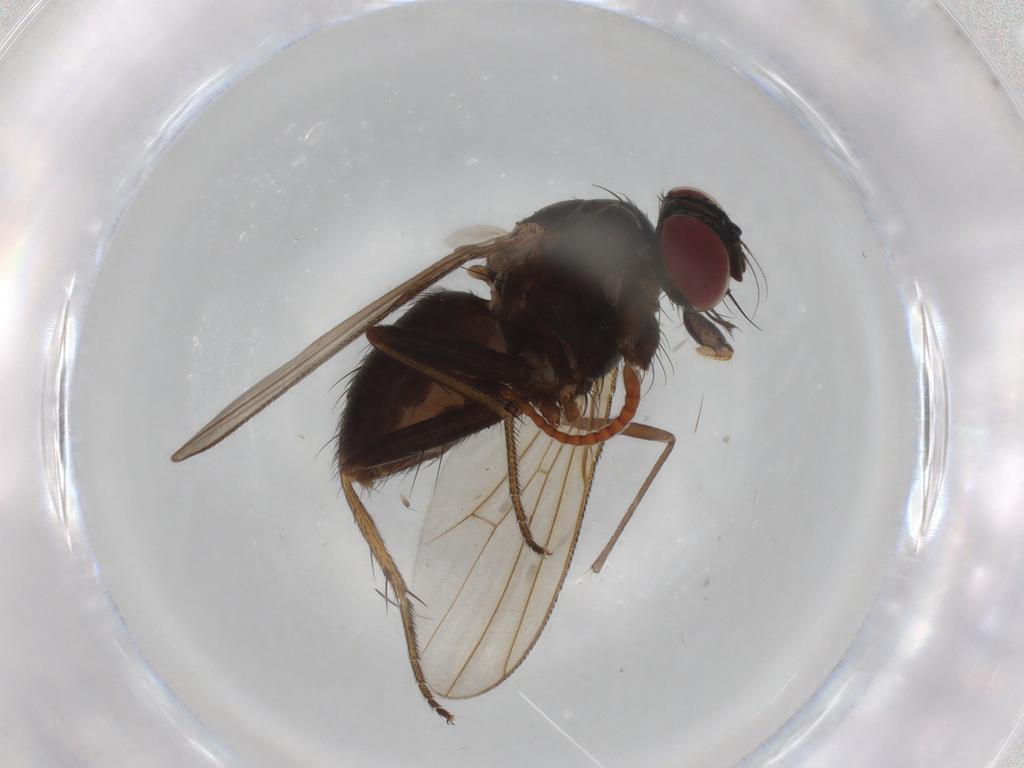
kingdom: Animalia
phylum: Arthropoda
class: Insecta
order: Diptera
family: Muscidae
